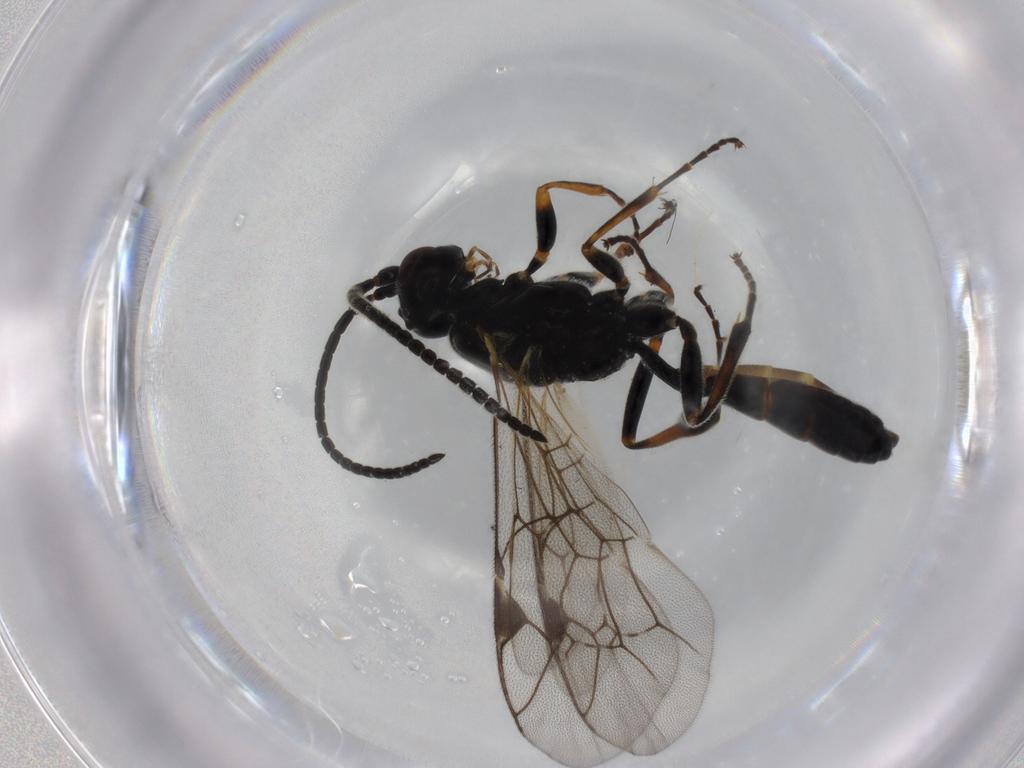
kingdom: Animalia
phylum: Arthropoda
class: Insecta
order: Hymenoptera
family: Ichneumonidae
